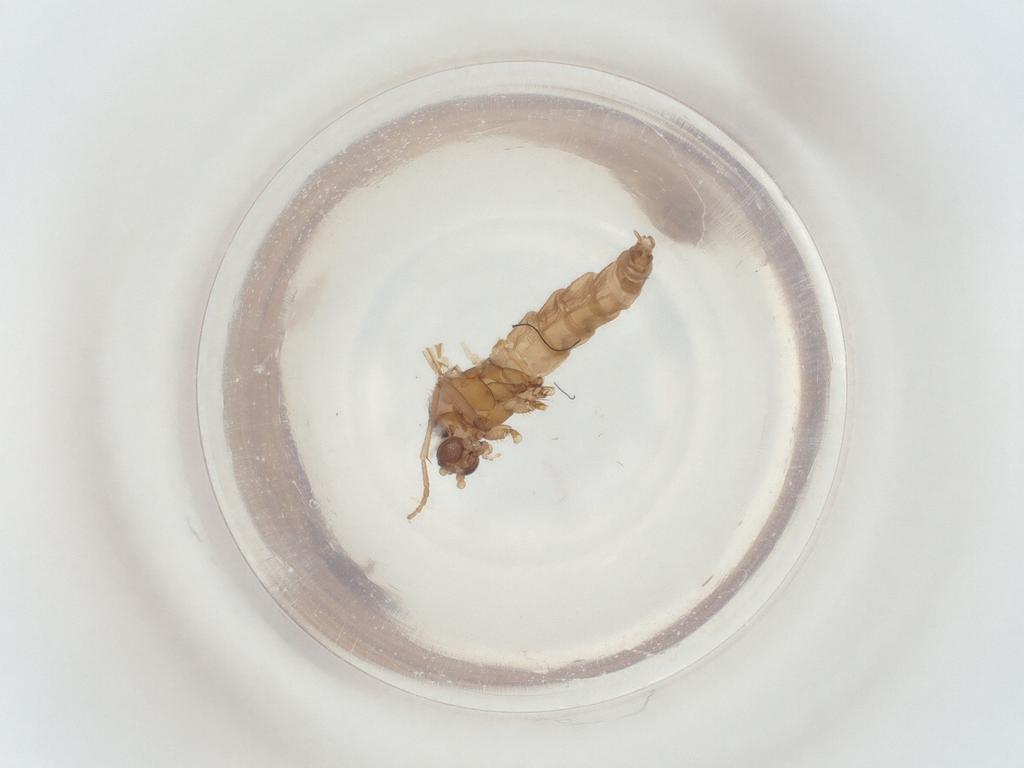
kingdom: Animalia
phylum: Arthropoda
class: Insecta
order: Diptera
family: Sciaridae
